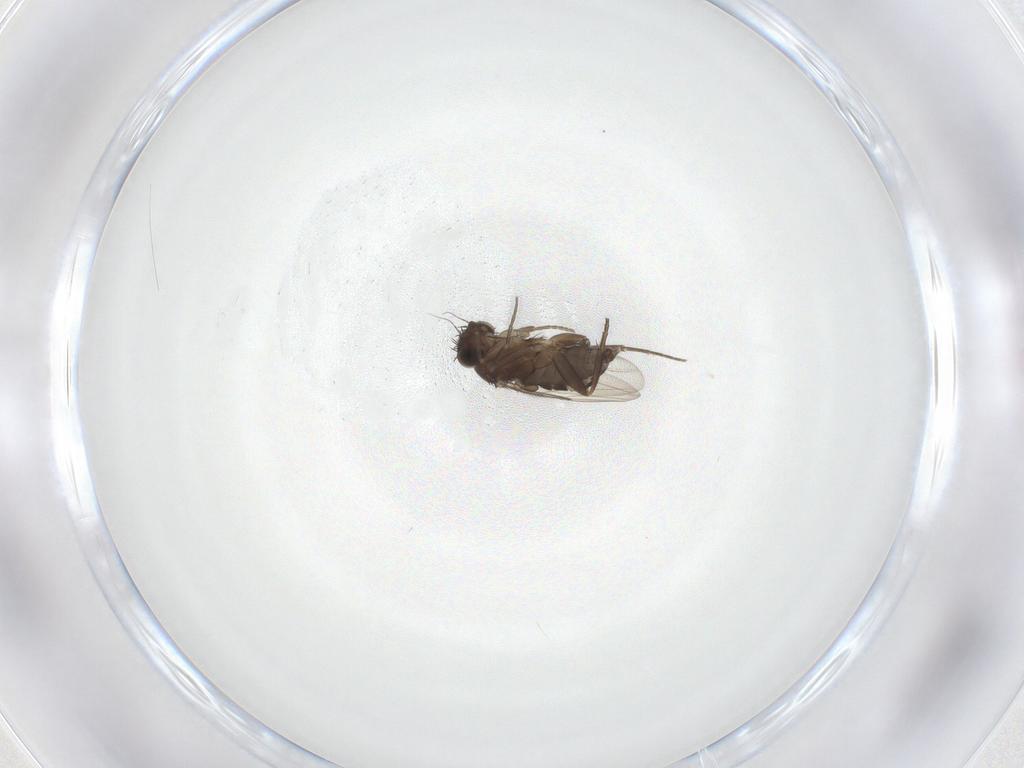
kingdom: Animalia
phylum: Arthropoda
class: Insecta
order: Diptera
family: Phoridae
